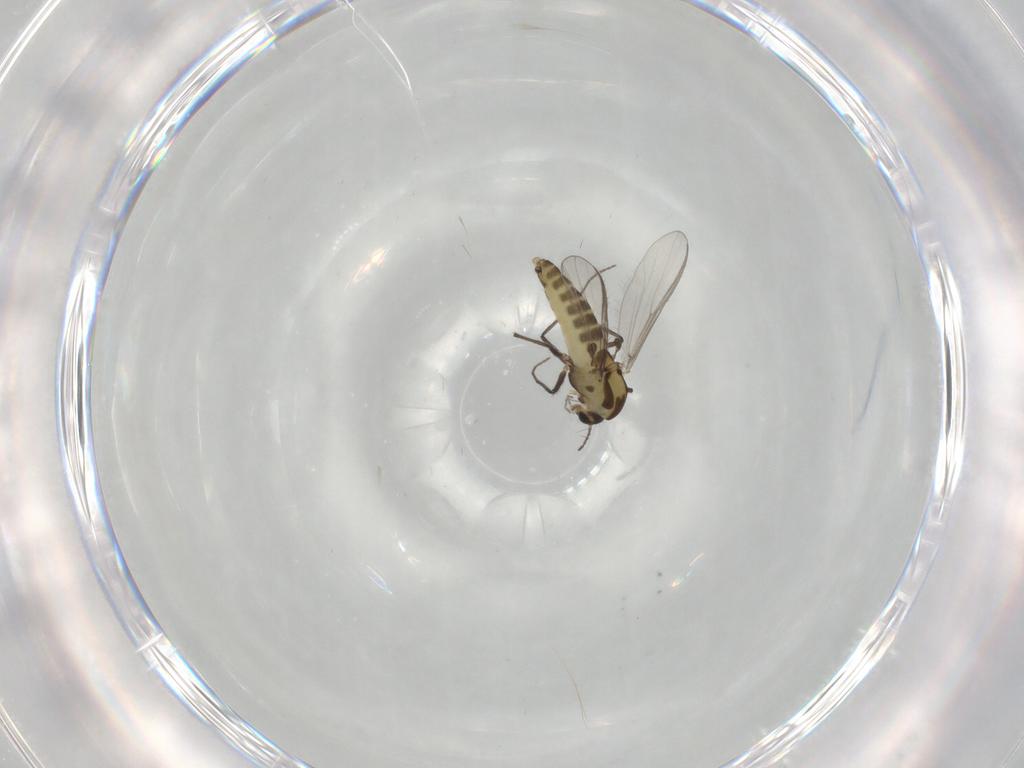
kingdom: Animalia
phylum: Arthropoda
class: Insecta
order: Diptera
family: Chironomidae
